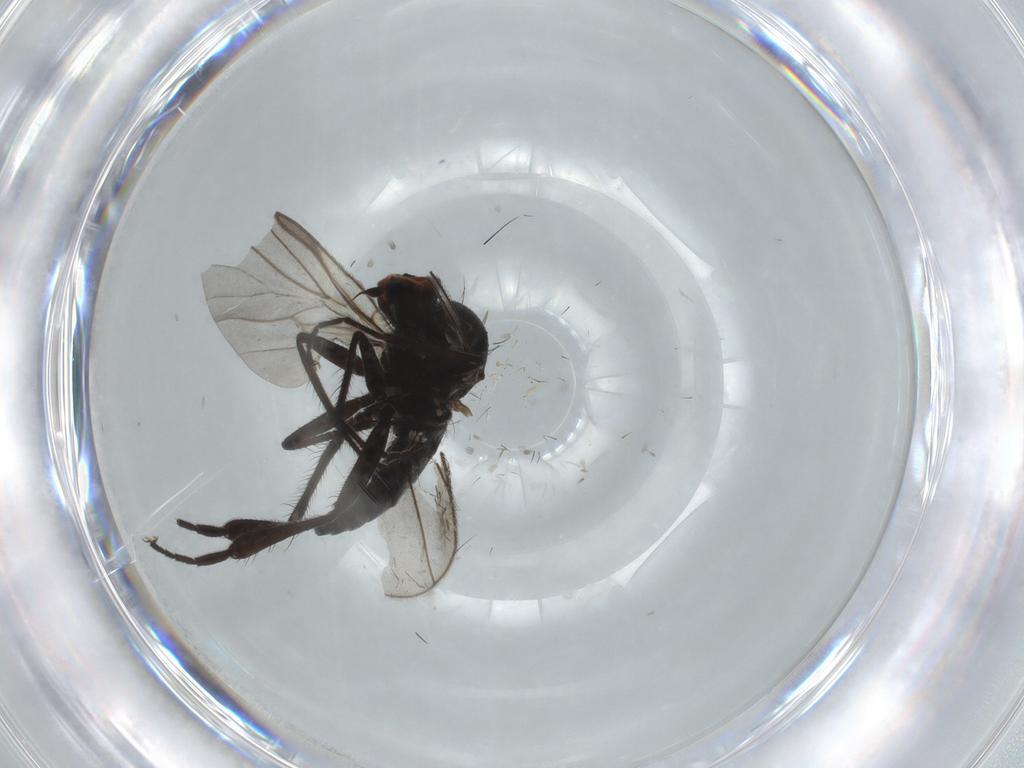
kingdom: Animalia
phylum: Arthropoda
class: Insecta
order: Diptera
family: Hybotidae
